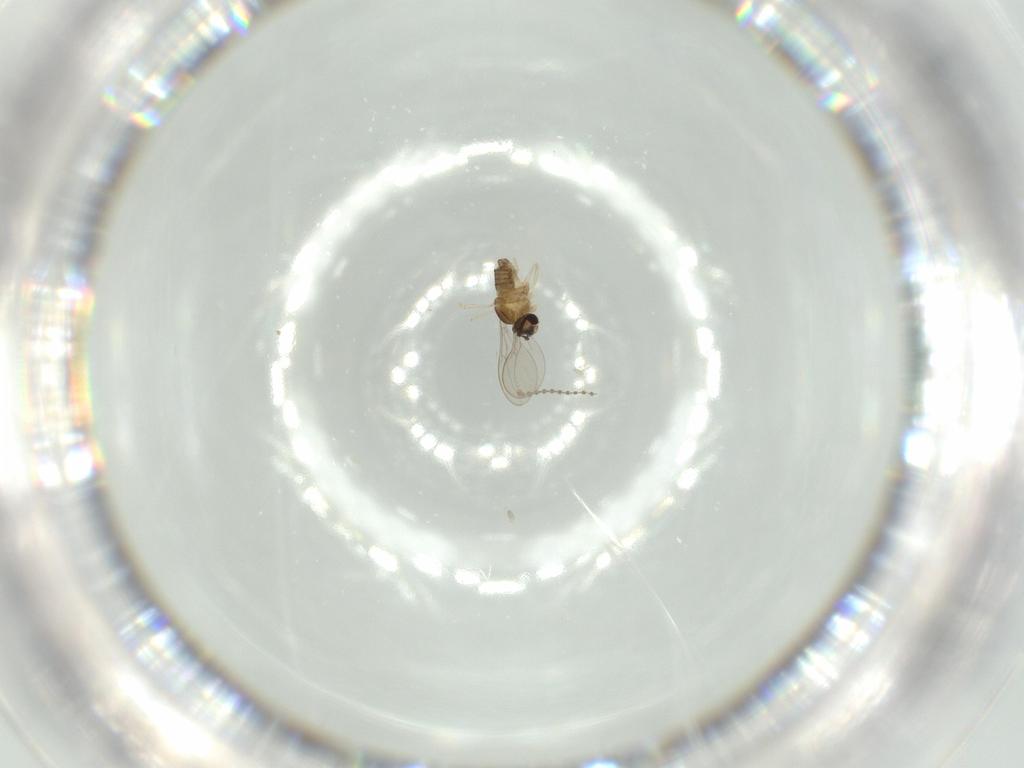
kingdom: Animalia
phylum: Arthropoda
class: Insecta
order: Diptera
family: Cecidomyiidae
